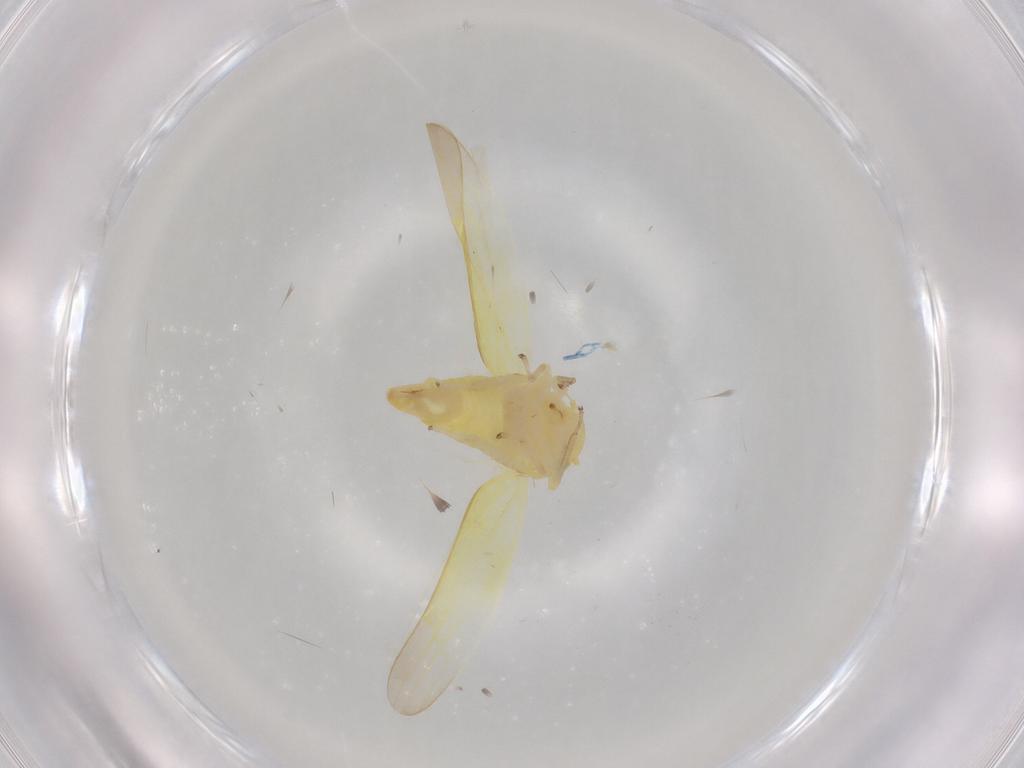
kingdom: Animalia
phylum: Arthropoda
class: Insecta
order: Hemiptera
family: Cicadellidae
